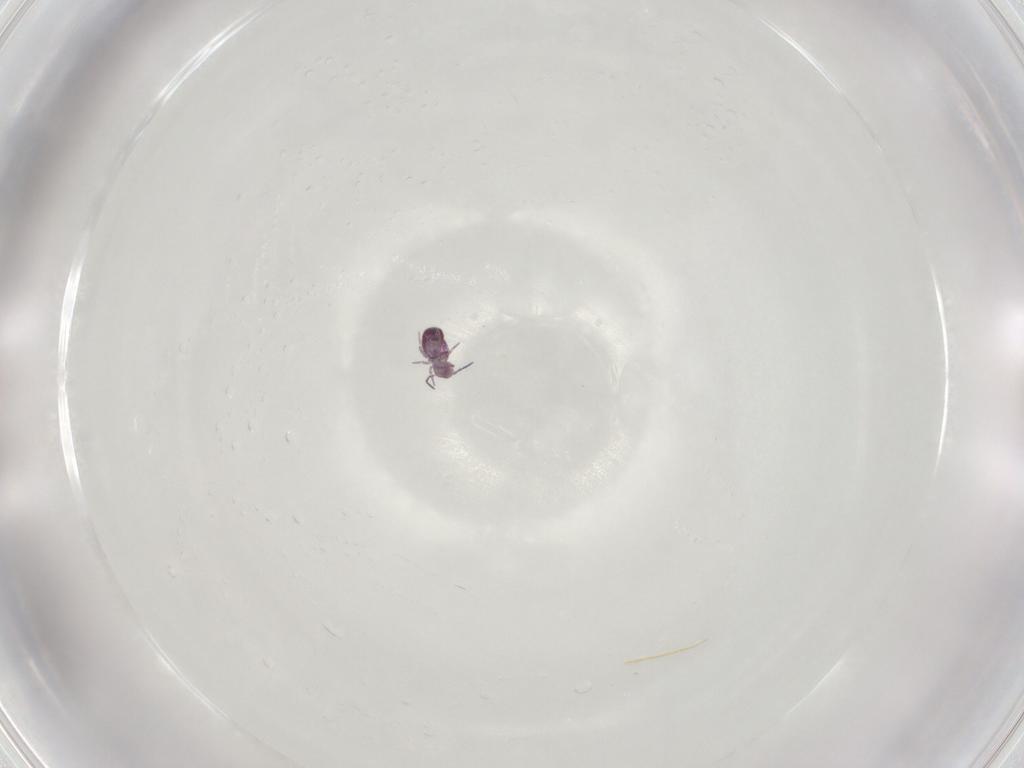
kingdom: Animalia
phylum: Arthropoda
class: Collembola
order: Symphypleona
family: Sminthurididae
